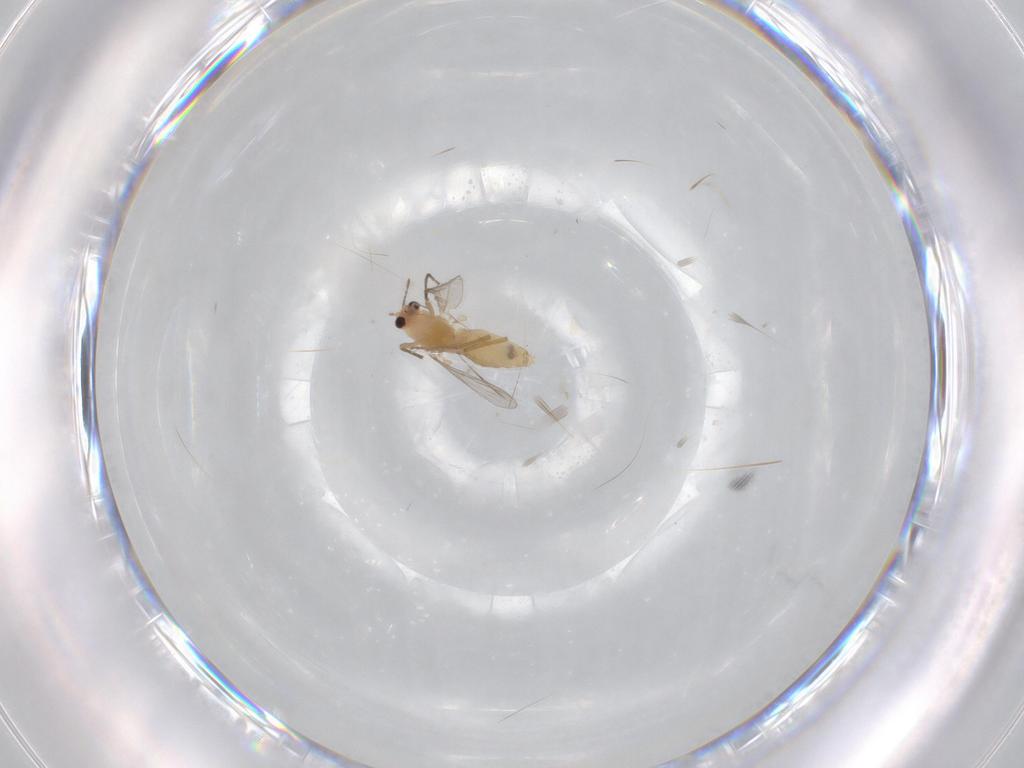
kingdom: Animalia
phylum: Arthropoda
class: Insecta
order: Diptera
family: Chironomidae
